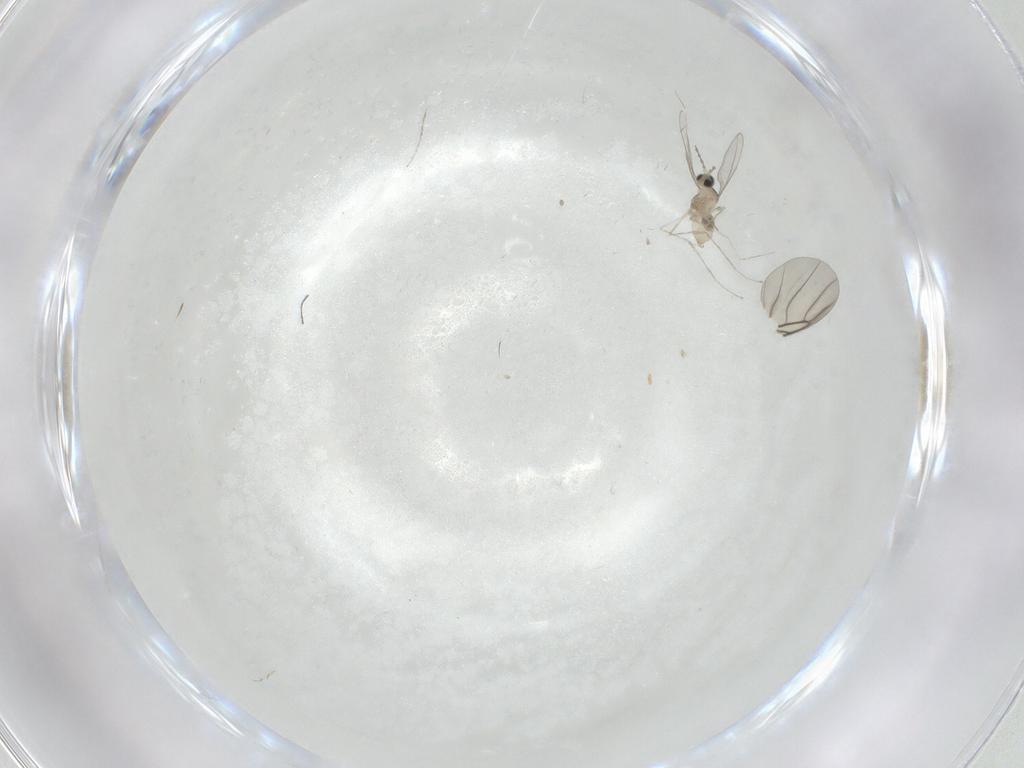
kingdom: Animalia
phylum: Arthropoda
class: Insecta
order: Diptera
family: Cecidomyiidae
